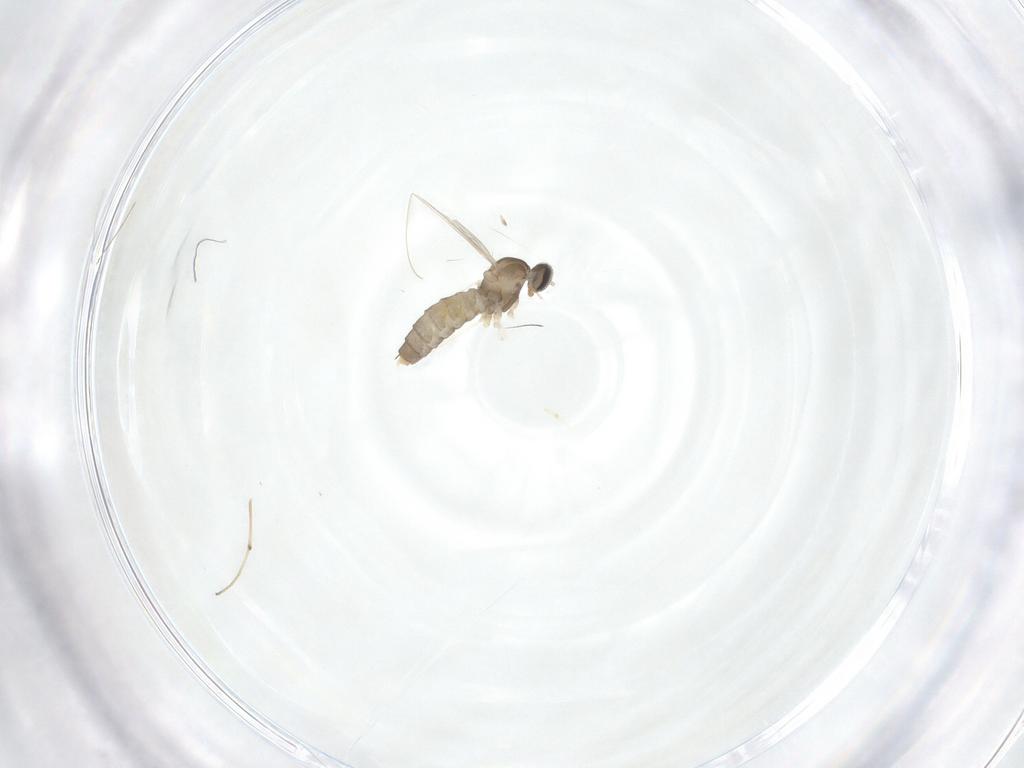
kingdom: Animalia
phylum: Arthropoda
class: Insecta
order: Diptera
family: Cecidomyiidae
